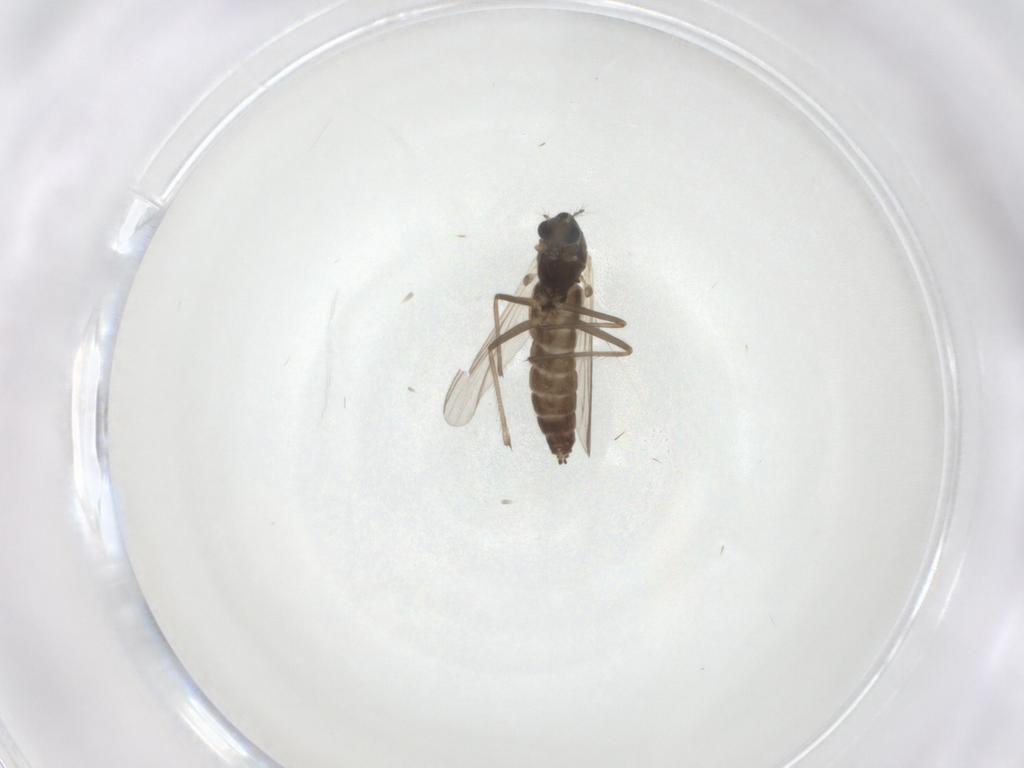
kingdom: Animalia
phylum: Arthropoda
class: Insecta
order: Diptera
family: Chironomidae
